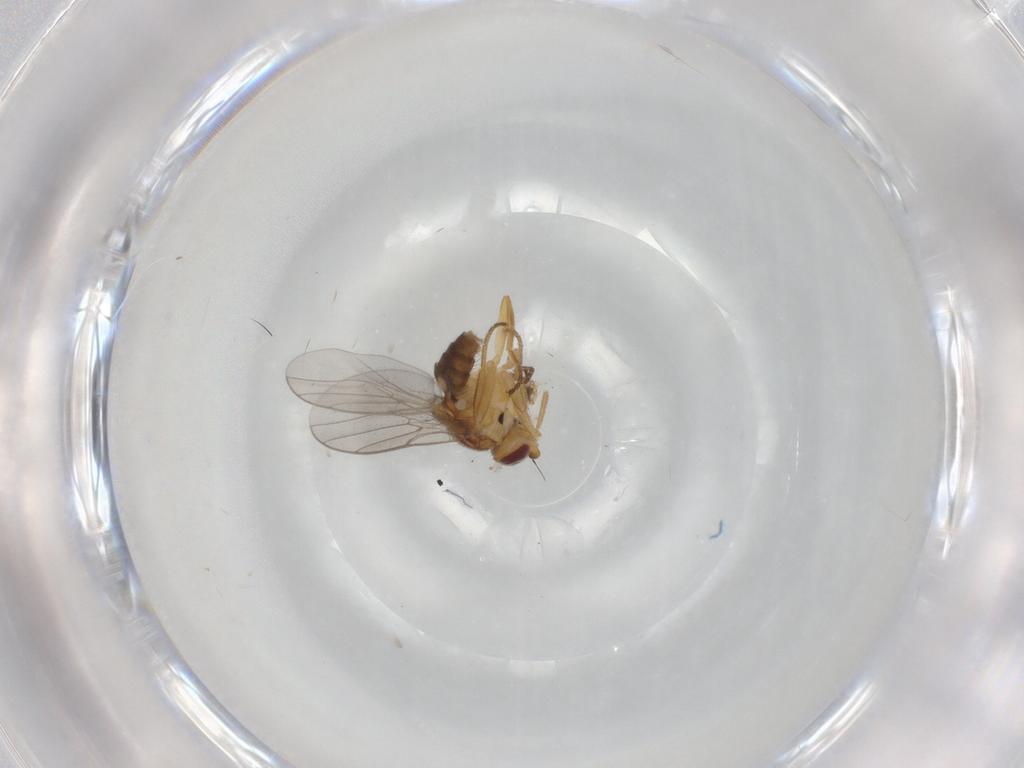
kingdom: Animalia
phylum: Arthropoda
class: Insecta
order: Diptera
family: Chloropidae
